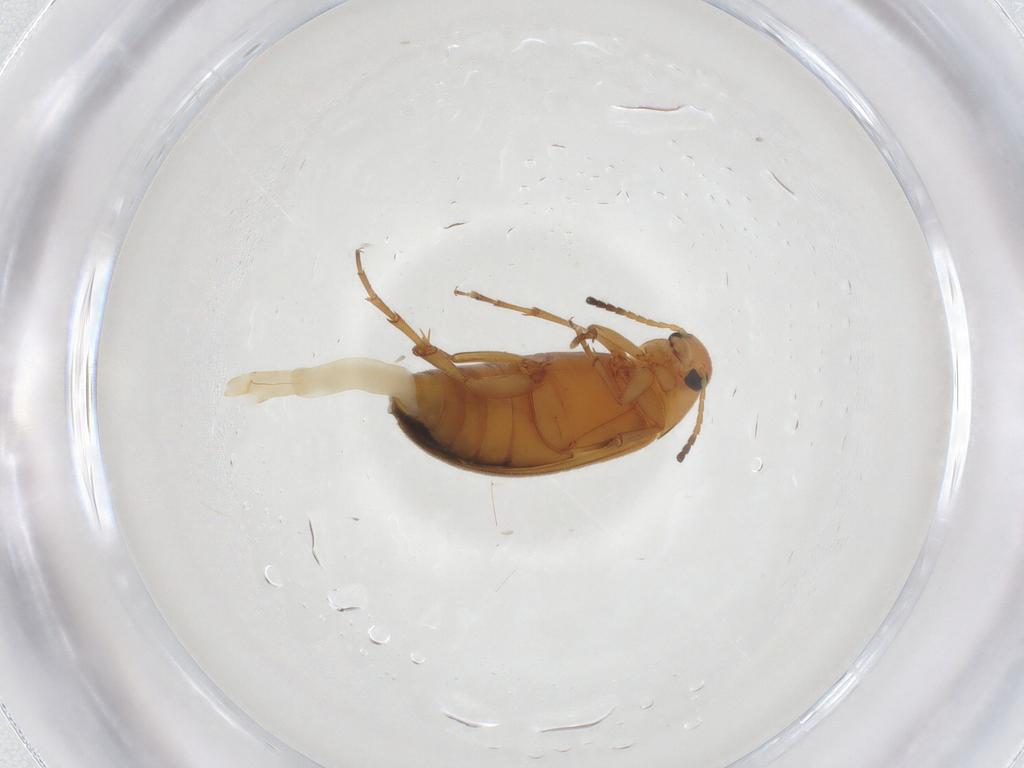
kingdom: Animalia
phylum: Arthropoda
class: Insecta
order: Coleoptera
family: Scraptiidae
